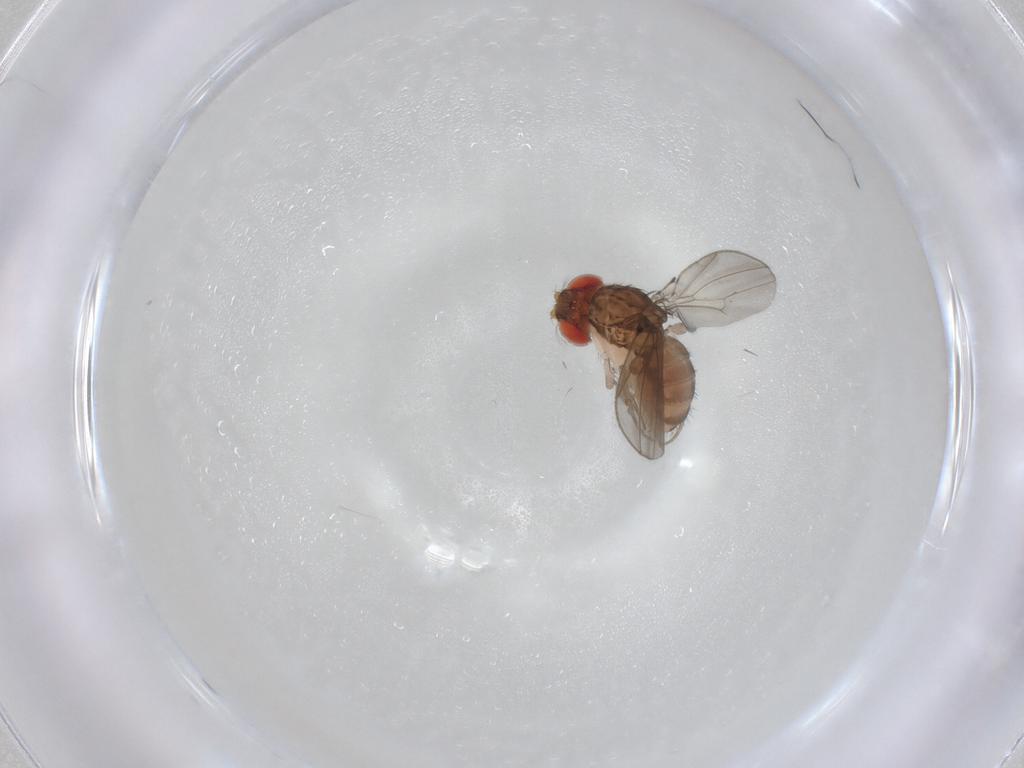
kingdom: Animalia
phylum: Arthropoda
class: Insecta
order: Diptera
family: Drosophilidae
